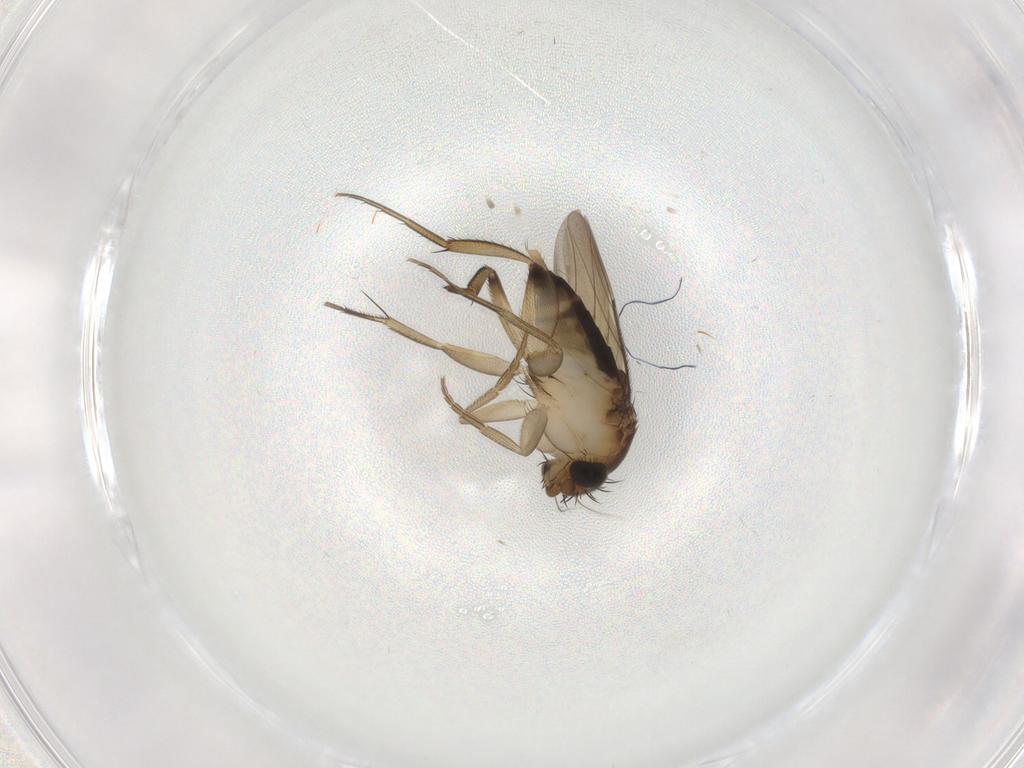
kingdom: Animalia
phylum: Arthropoda
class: Insecta
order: Diptera
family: Phoridae
